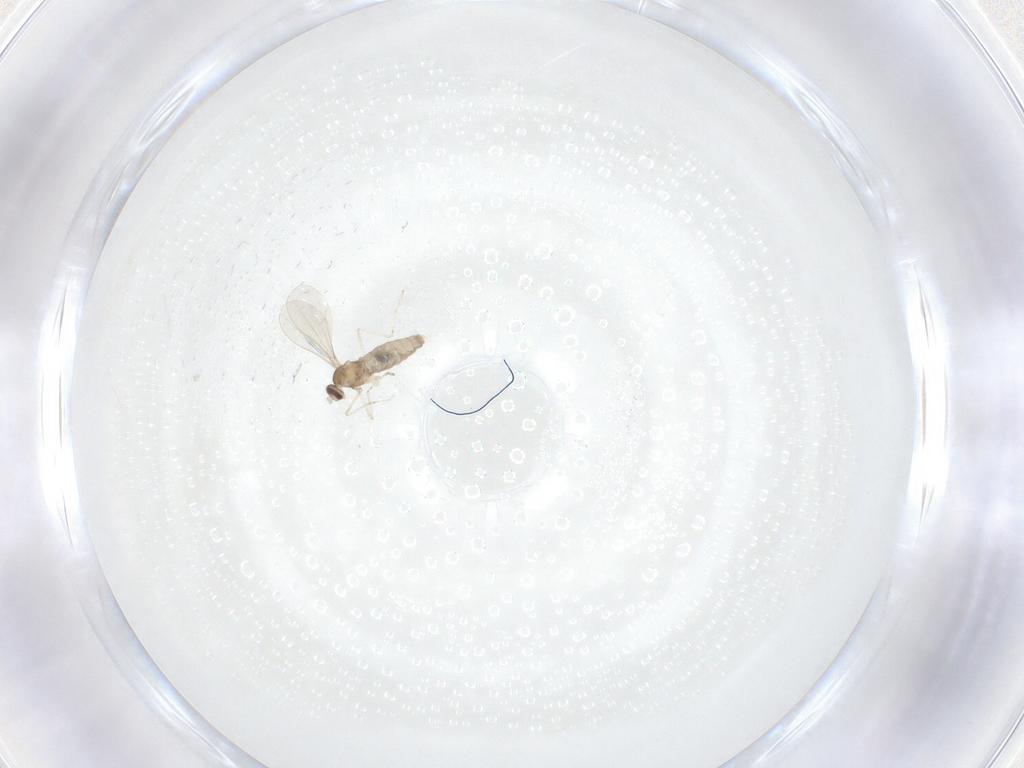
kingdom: Animalia
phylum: Arthropoda
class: Insecta
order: Diptera
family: Cecidomyiidae
